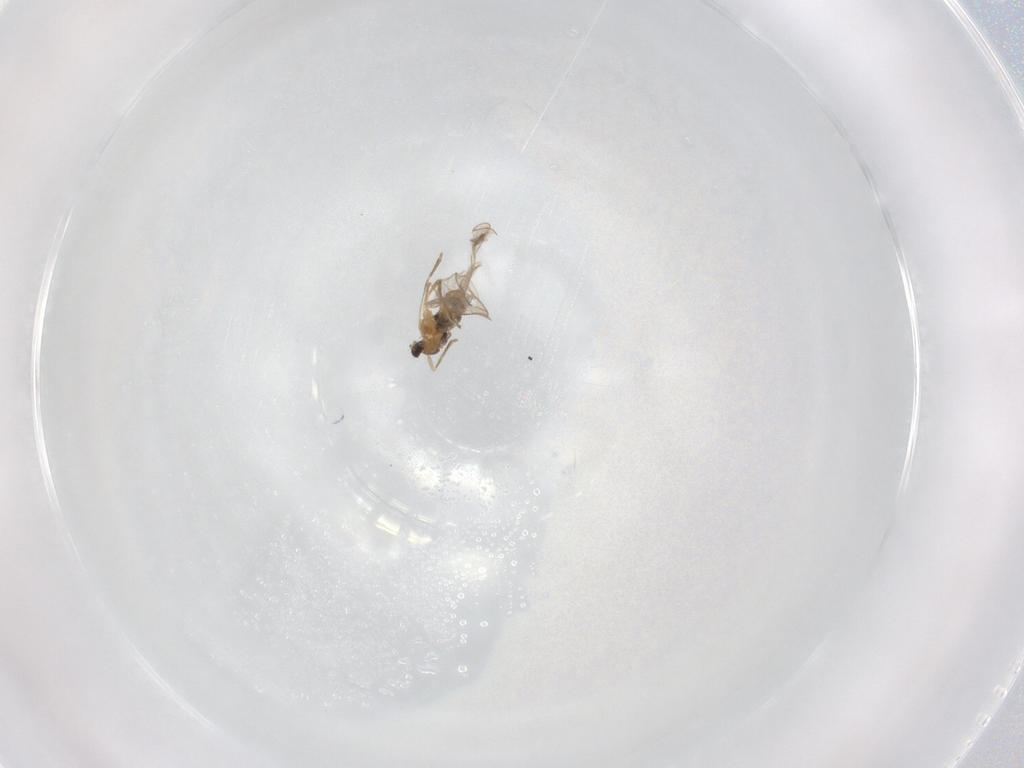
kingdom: Animalia
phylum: Arthropoda
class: Insecta
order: Diptera
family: Cecidomyiidae
